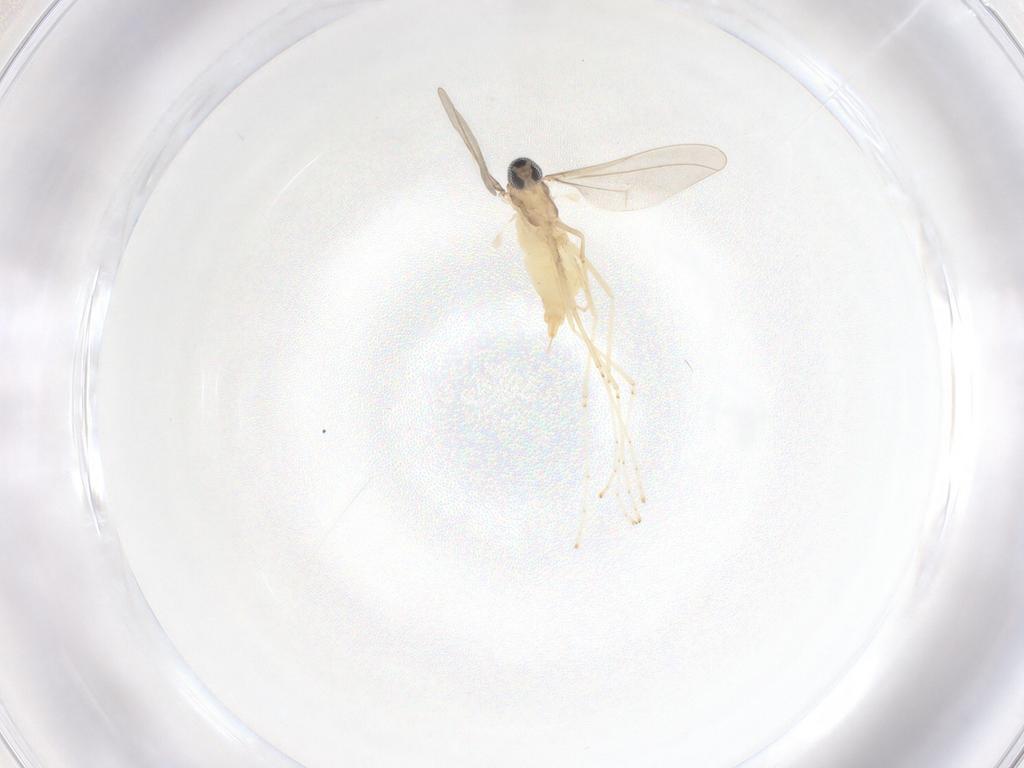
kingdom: Animalia
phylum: Arthropoda
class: Insecta
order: Diptera
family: Cecidomyiidae
